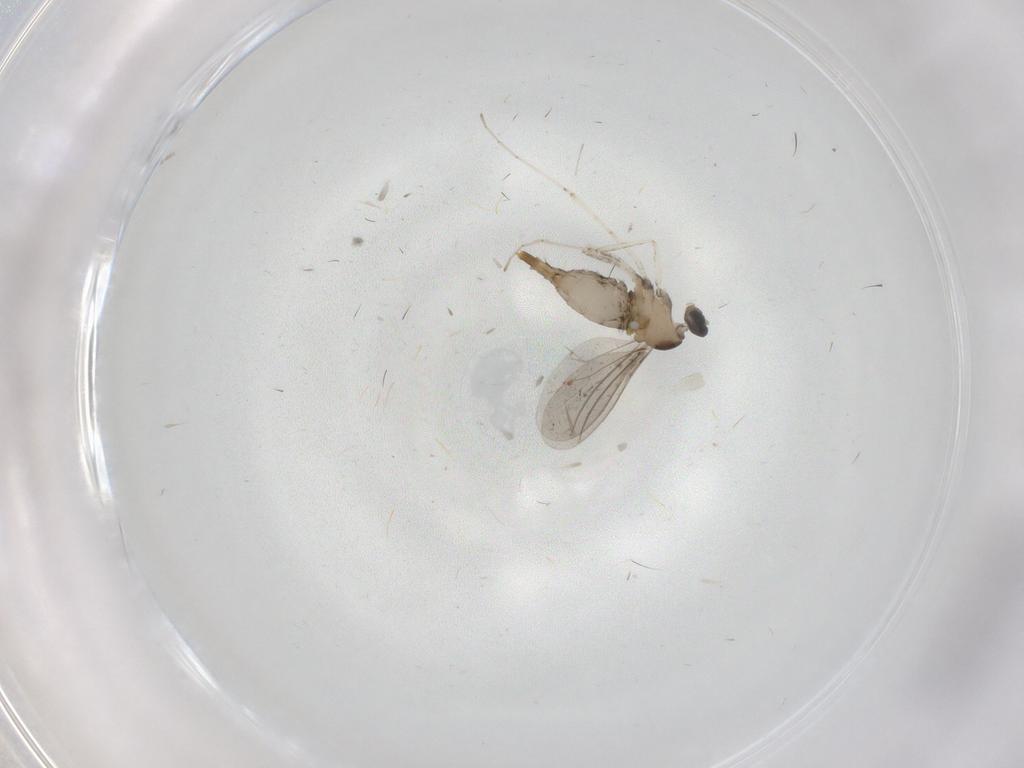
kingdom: Animalia
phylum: Arthropoda
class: Insecta
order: Diptera
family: Cecidomyiidae
